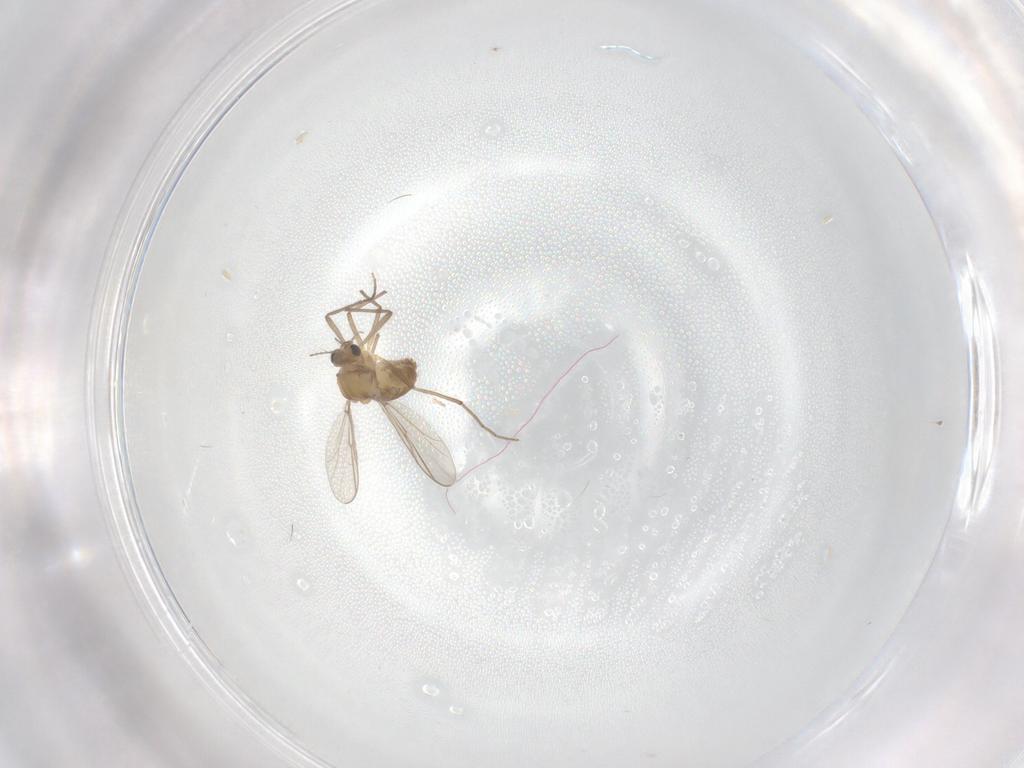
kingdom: Animalia
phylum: Arthropoda
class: Insecta
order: Diptera
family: Chironomidae
